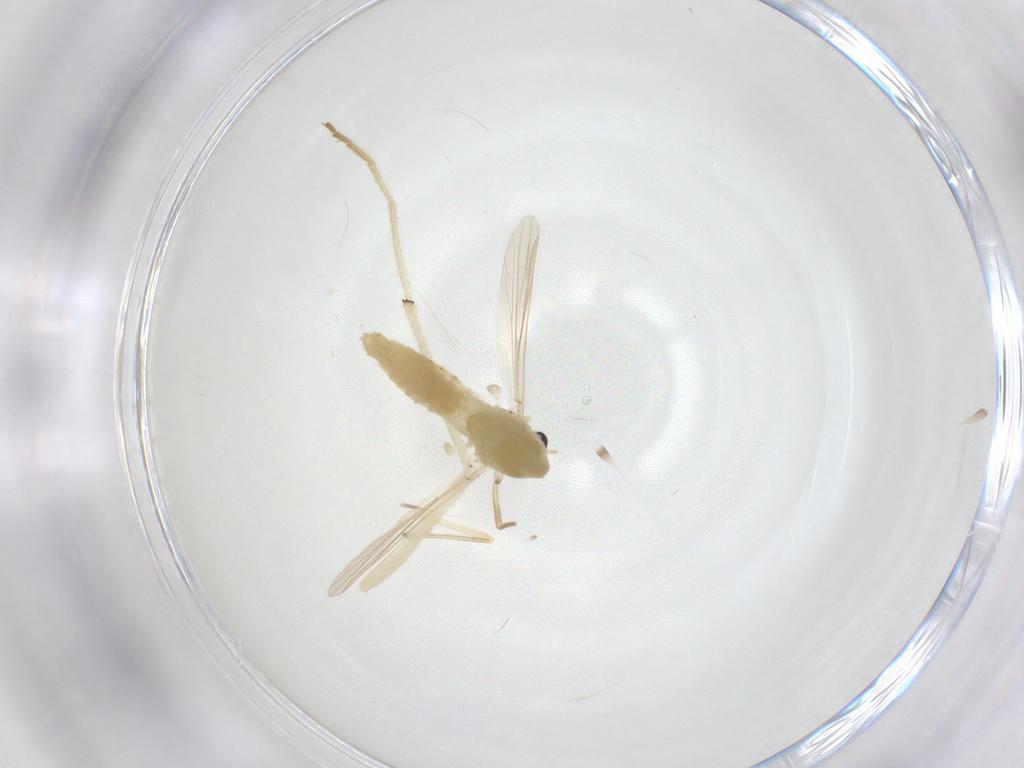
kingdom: Animalia
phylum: Arthropoda
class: Insecta
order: Diptera
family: Chironomidae
